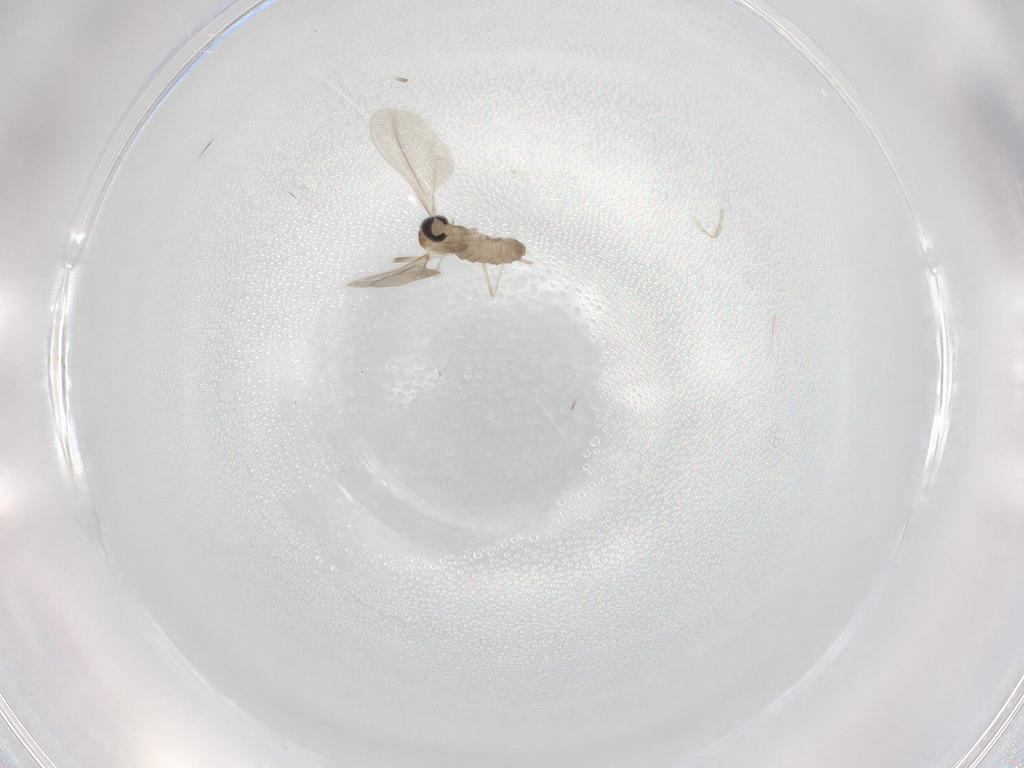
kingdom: Animalia
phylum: Arthropoda
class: Insecta
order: Diptera
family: Cecidomyiidae
